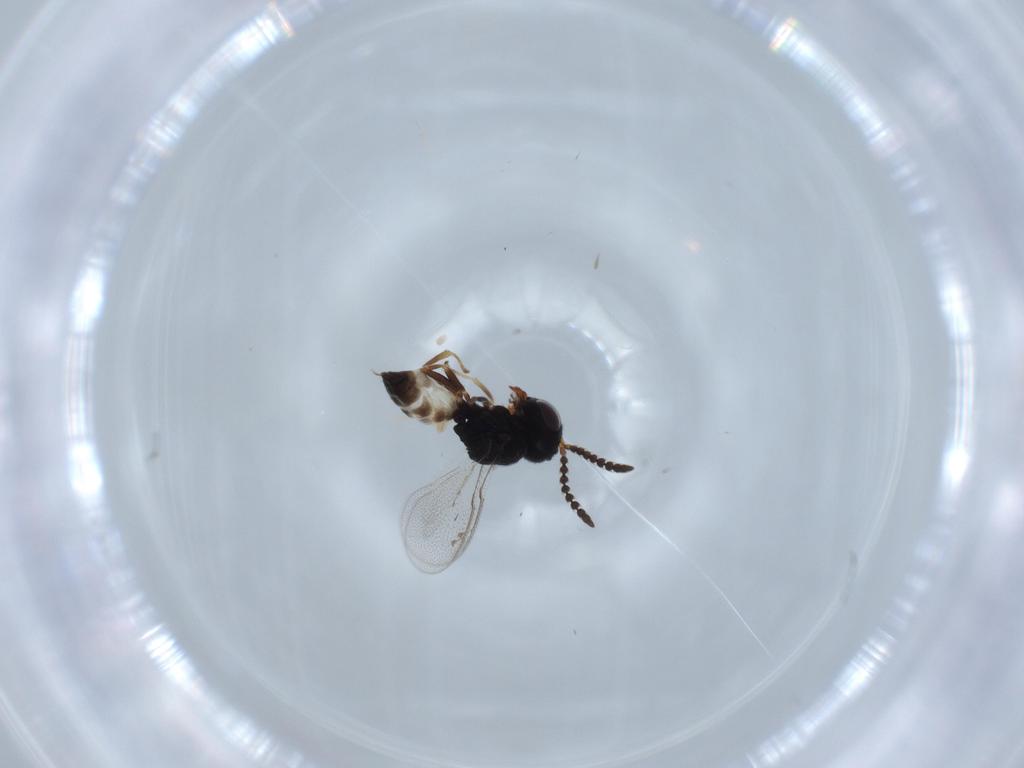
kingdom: Animalia
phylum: Arthropoda
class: Insecta
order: Hymenoptera
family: Pteromalidae
